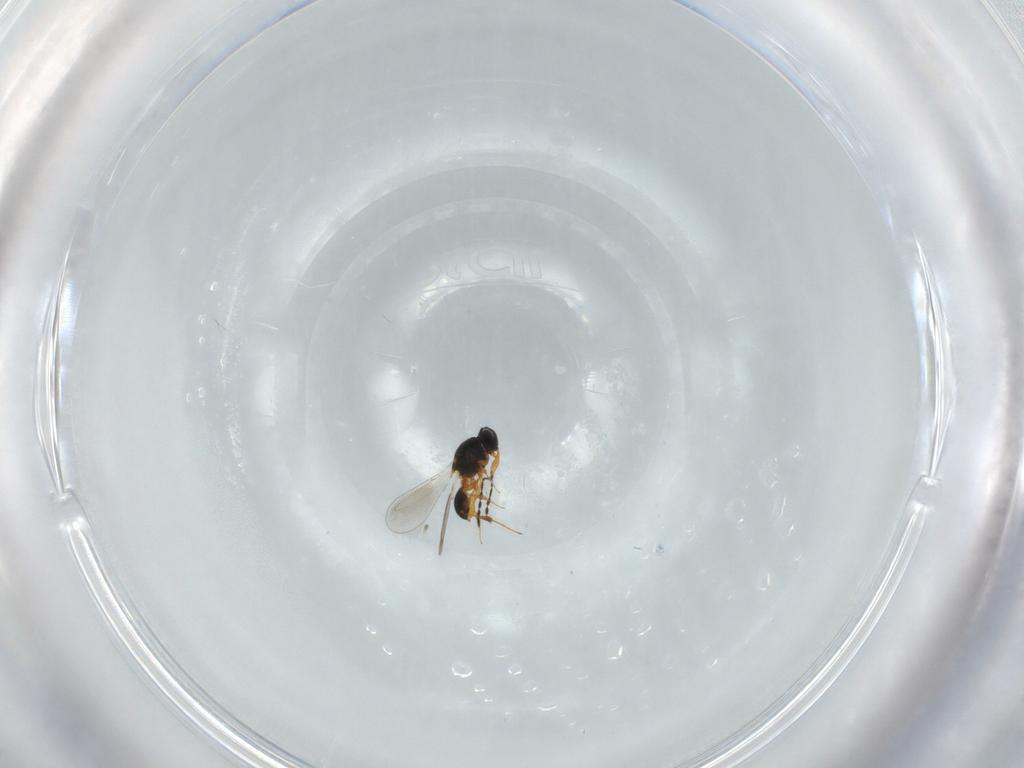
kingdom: Animalia
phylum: Arthropoda
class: Insecta
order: Hymenoptera
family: Platygastridae
